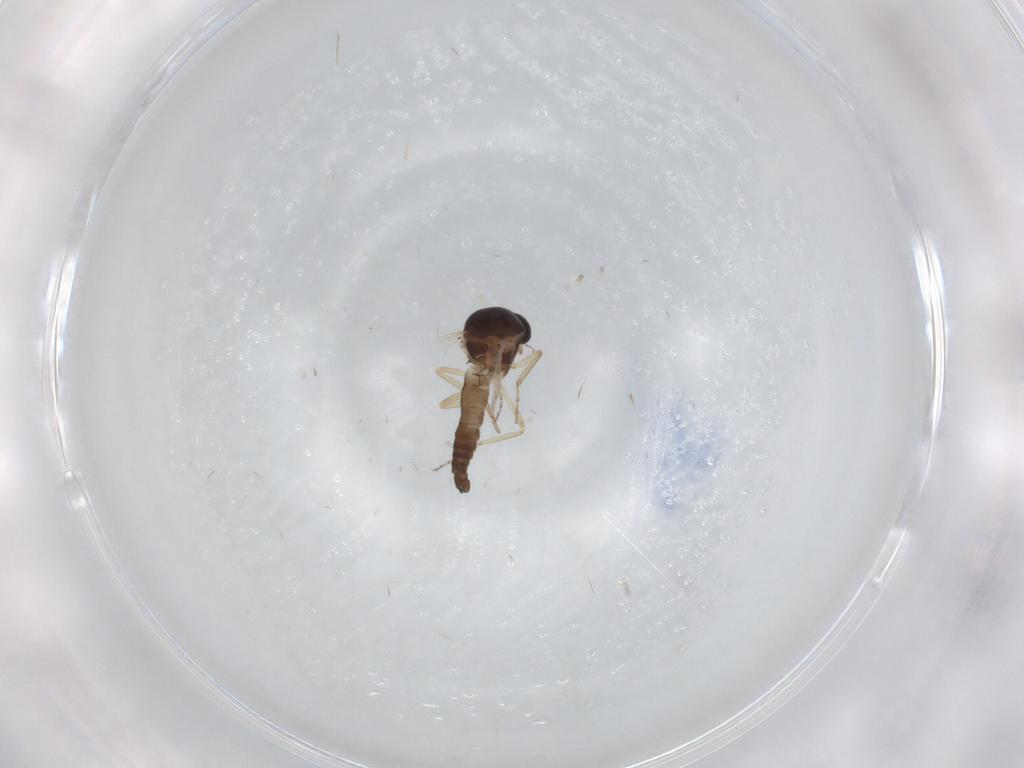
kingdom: Animalia
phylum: Arthropoda
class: Insecta
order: Diptera
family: Ceratopogonidae
